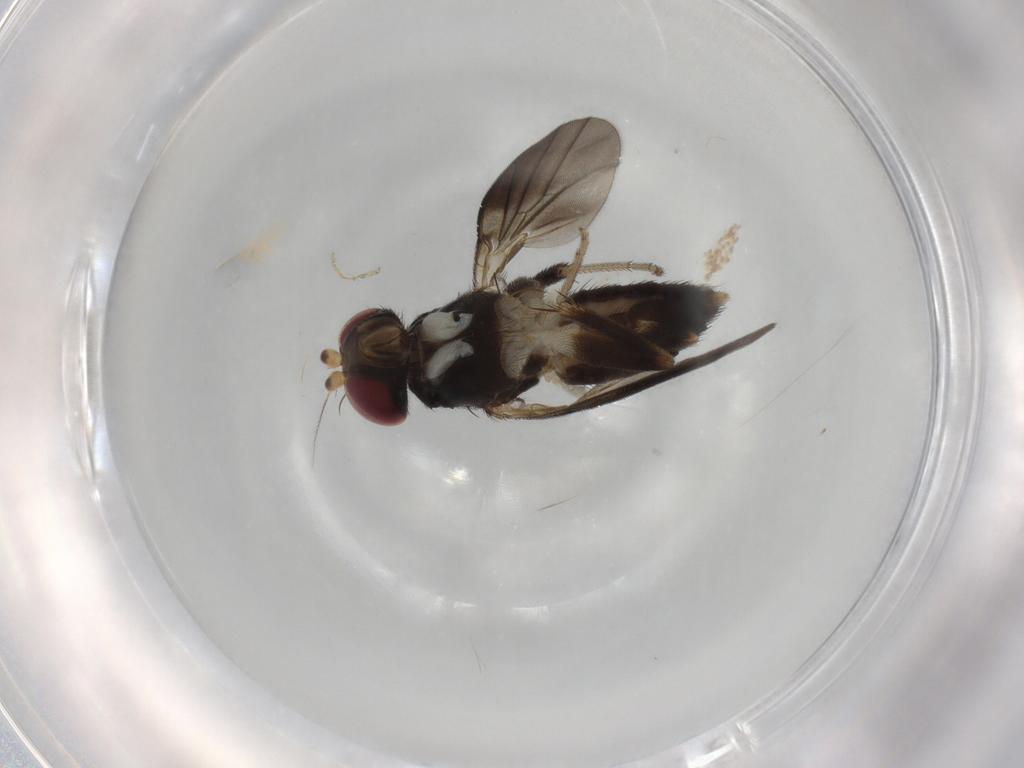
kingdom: Animalia
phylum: Arthropoda
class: Insecta
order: Diptera
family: Clusiidae
